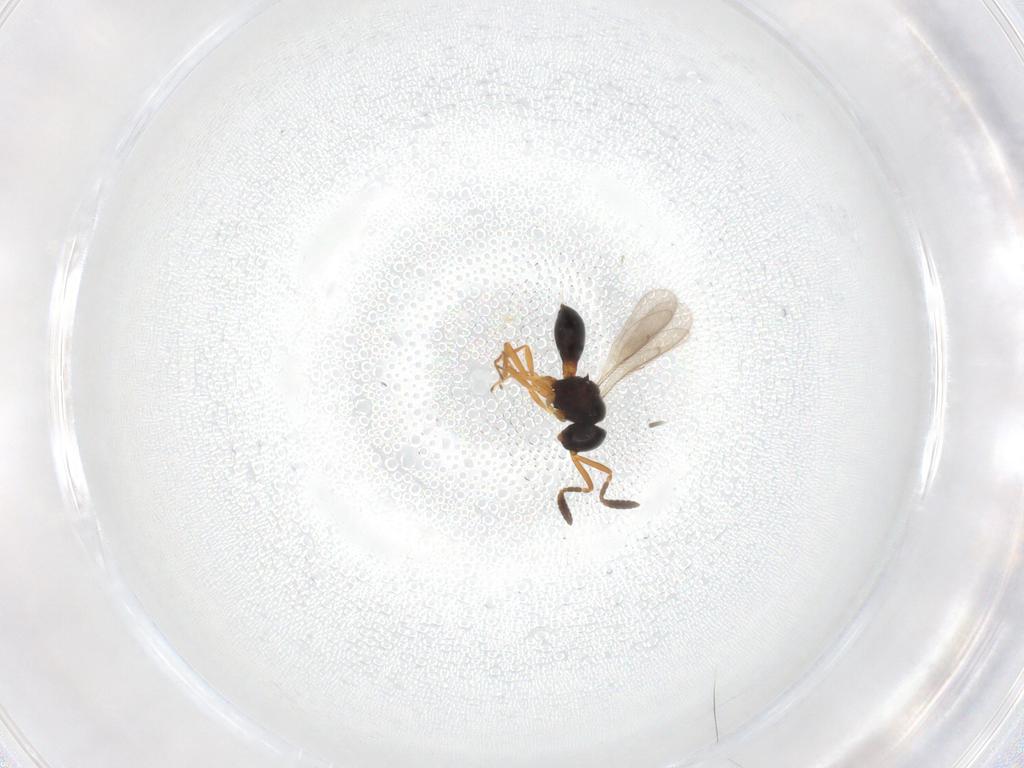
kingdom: Animalia
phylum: Arthropoda
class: Insecta
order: Hymenoptera
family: Scelionidae
